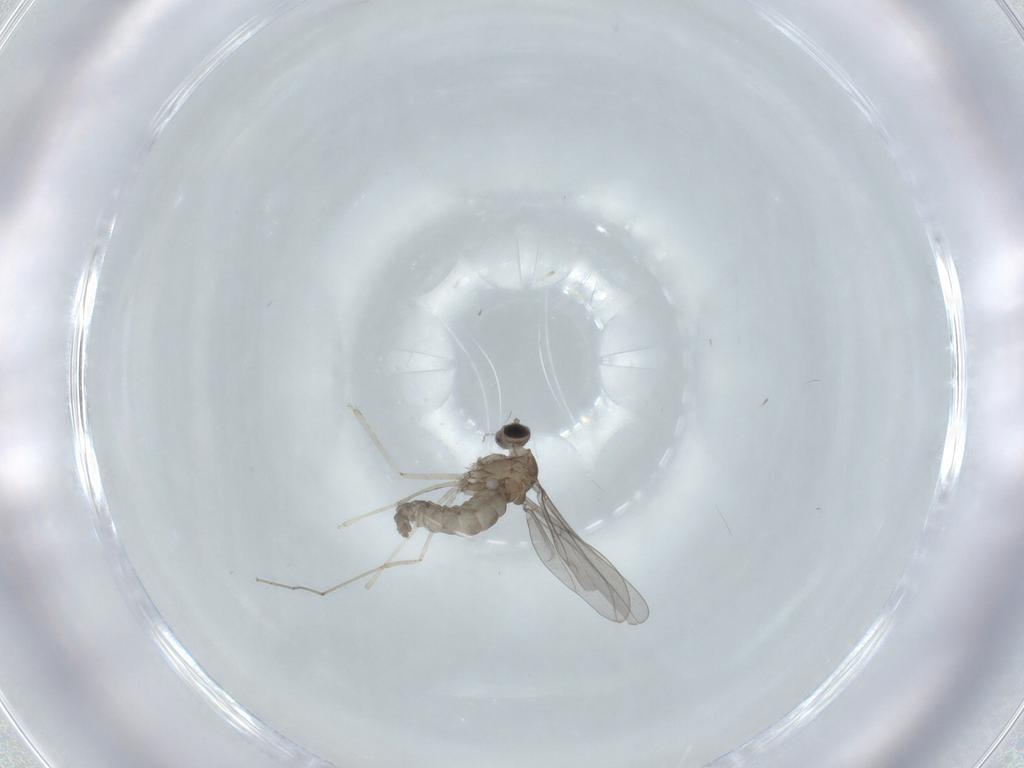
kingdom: Animalia
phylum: Arthropoda
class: Insecta
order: Diptera
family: Cecidomyiidae
